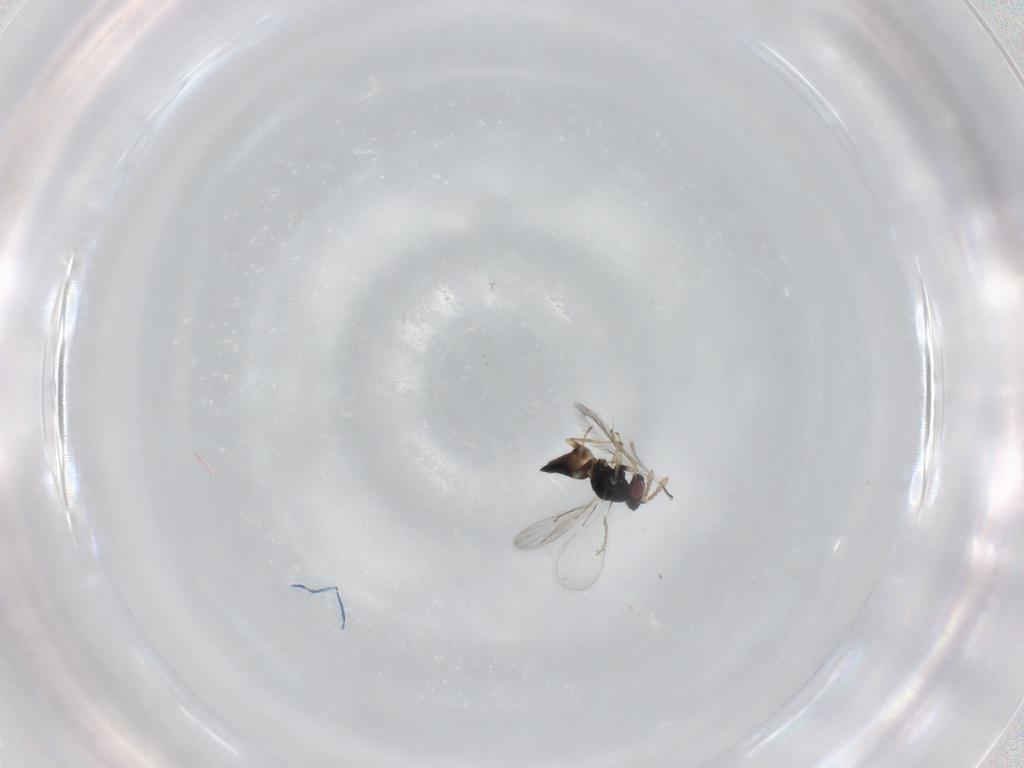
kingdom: Animalia
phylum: Arthropoda
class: Insecta
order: Hymenoptera
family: Eulophidae
